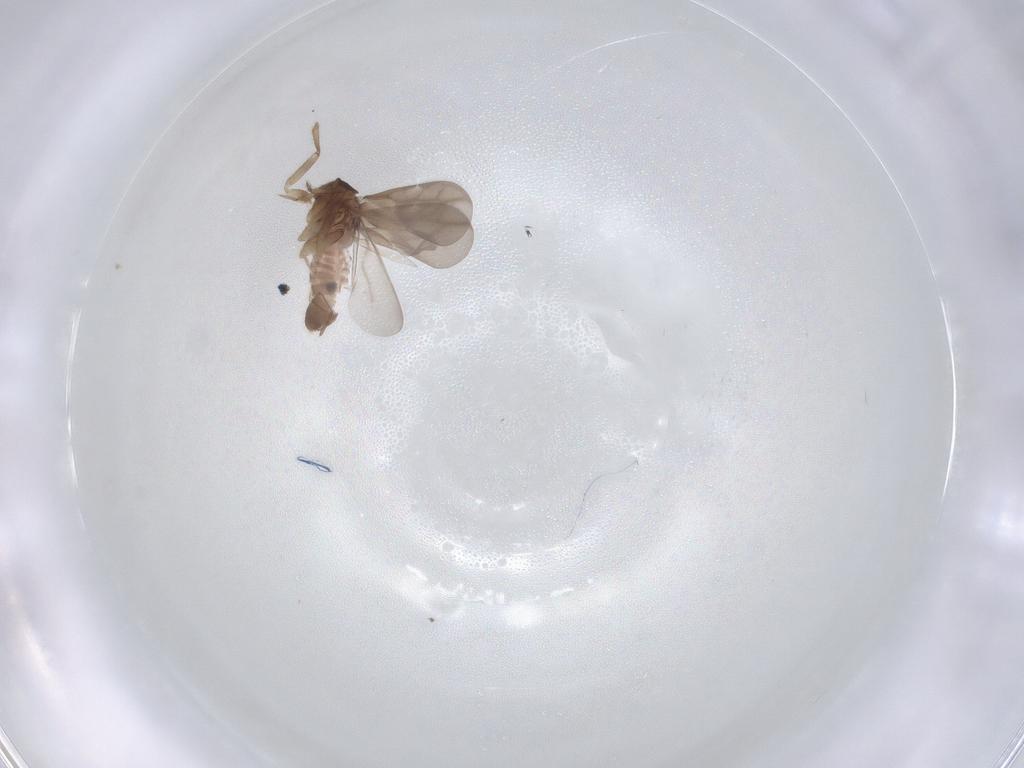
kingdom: Animalia
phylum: Arthropoda
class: Insecta
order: Hemiptera
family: Ceratocombidae
